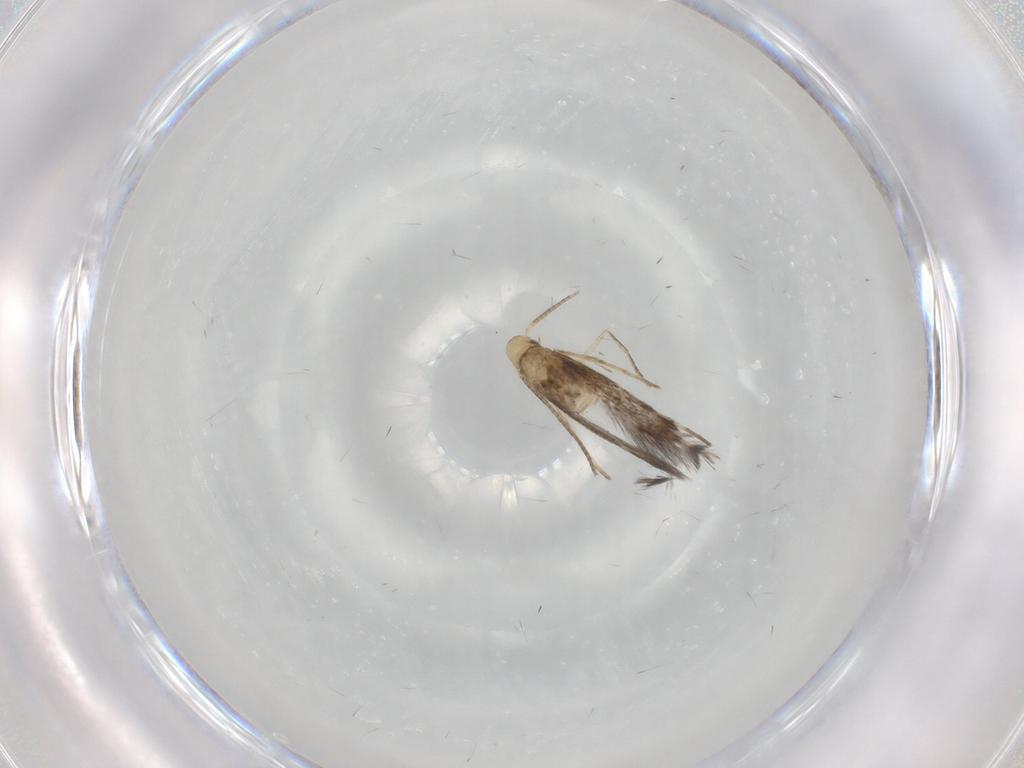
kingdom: Animalia
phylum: Arthropoda
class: Insecta
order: Lepidoptera
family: Gracillariidae
